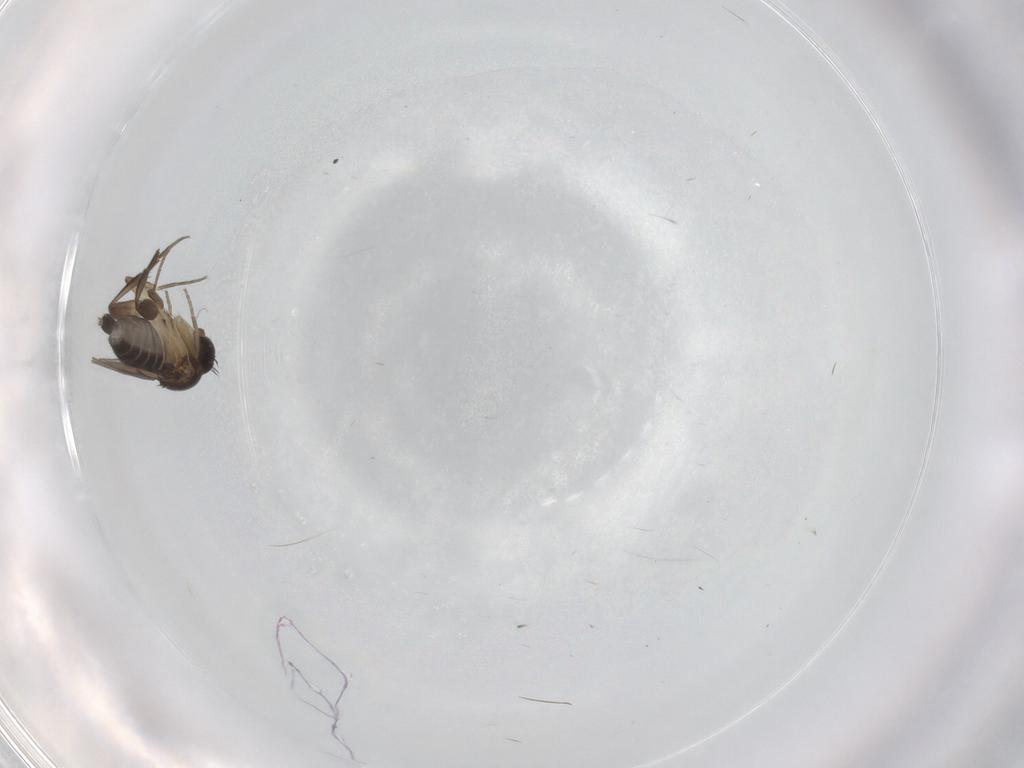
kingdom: Animalia
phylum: Arthropoda
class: Insecta
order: Diptera
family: Phoridae
